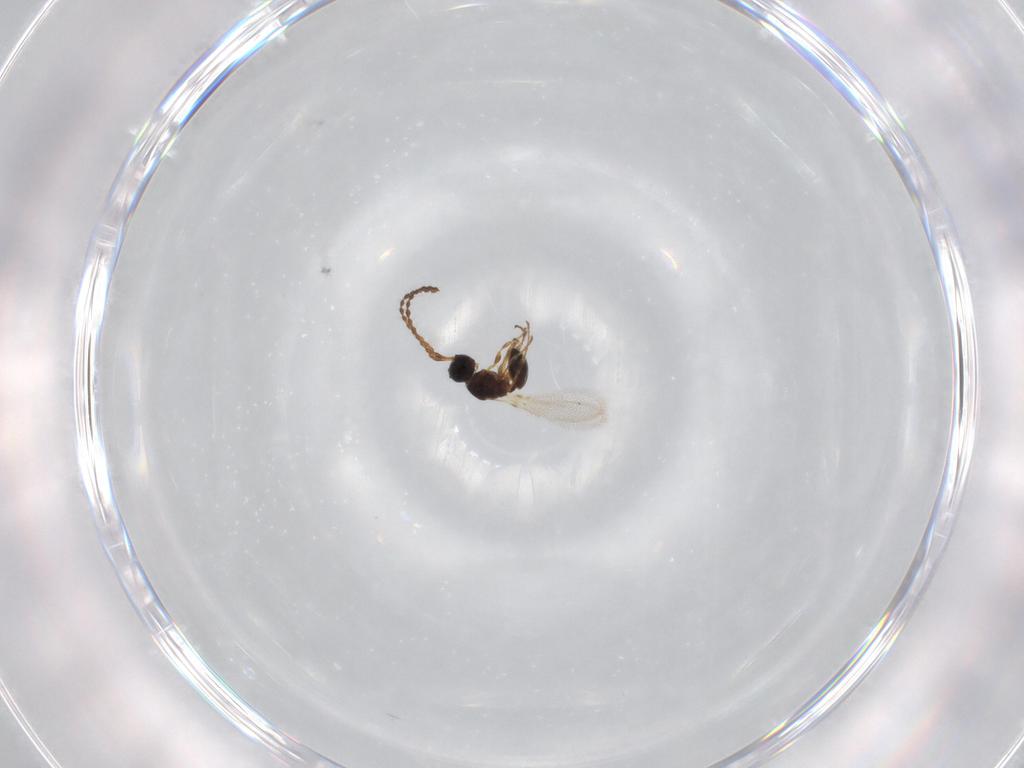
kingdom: Animalia
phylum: Arthropoda
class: Insecta
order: Hymenoptera
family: Diapriidae
